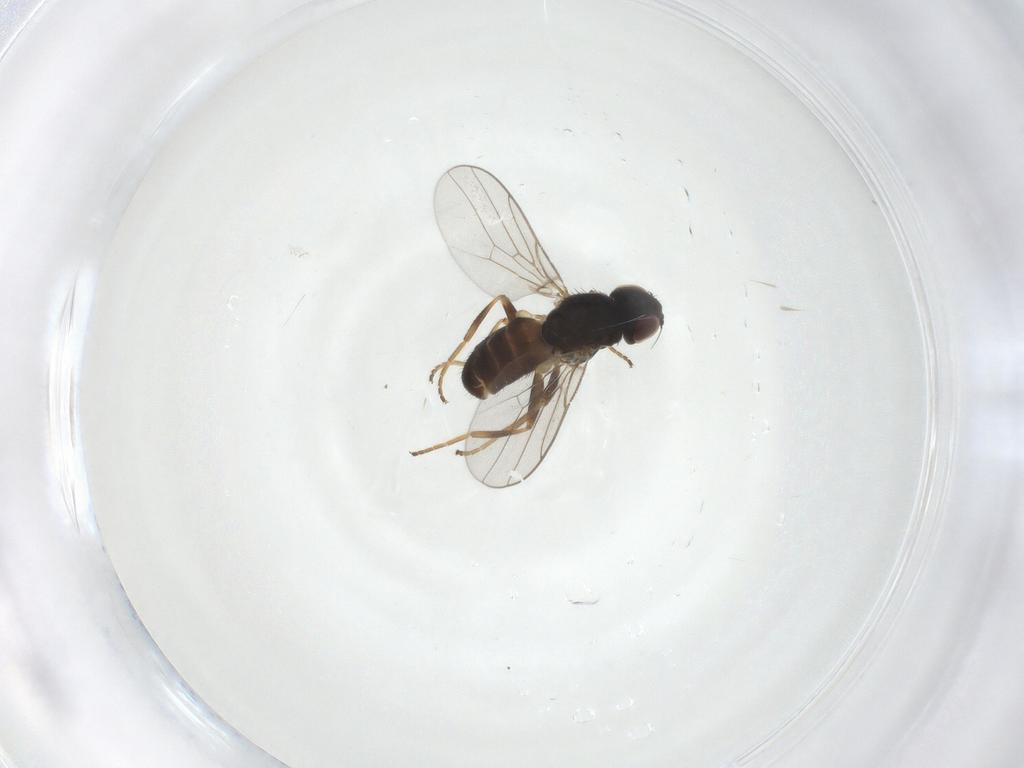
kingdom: Animalia
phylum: Arthropoda
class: Insecta
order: Diptera
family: Chloropidae
